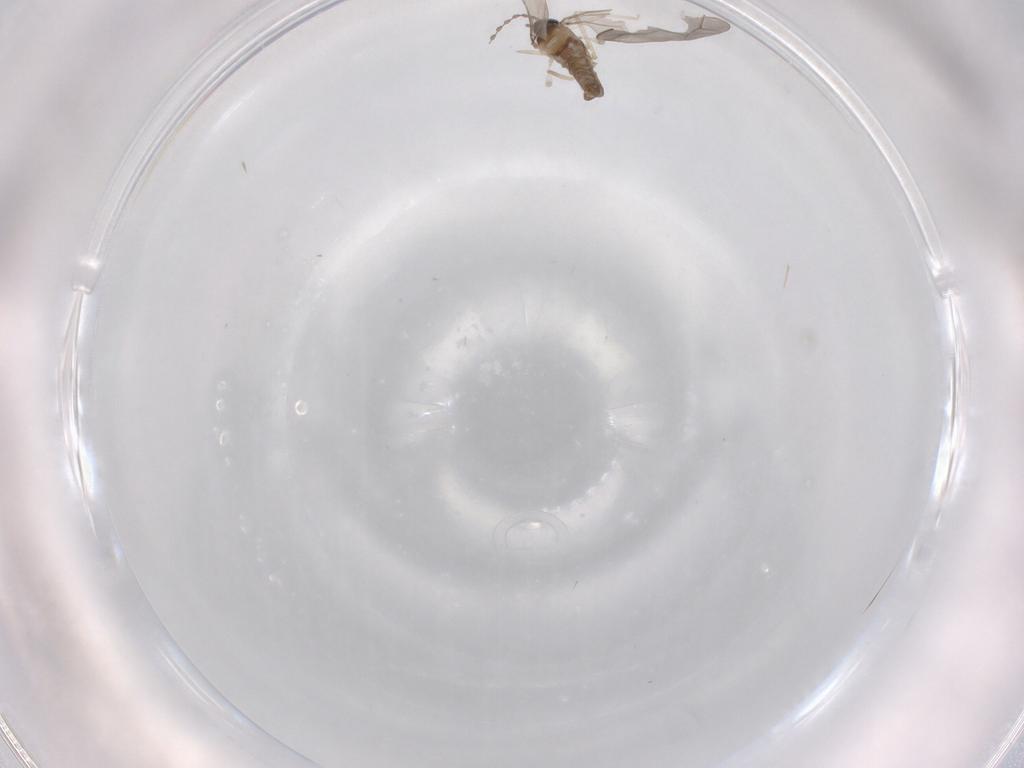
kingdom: Animalia
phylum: Arthropoda
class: Insecta
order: Diptera
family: Cecidomyiidae
